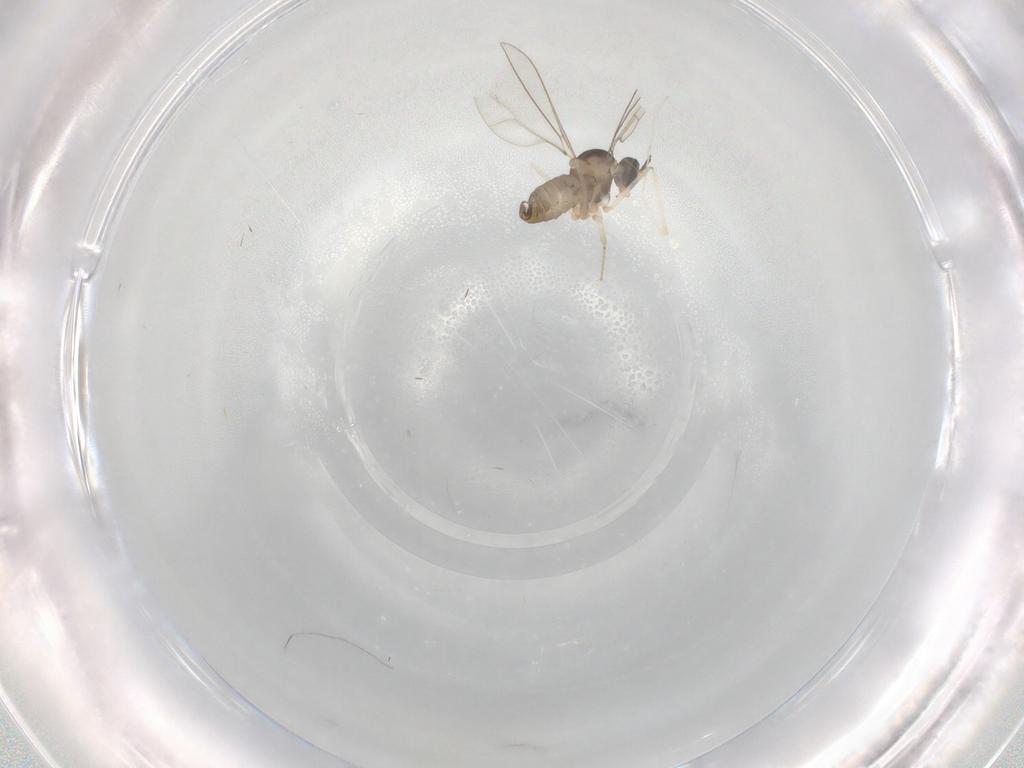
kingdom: Animalia
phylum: Arthropoda
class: Insecta
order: Diptera
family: Cecidomyiidae
